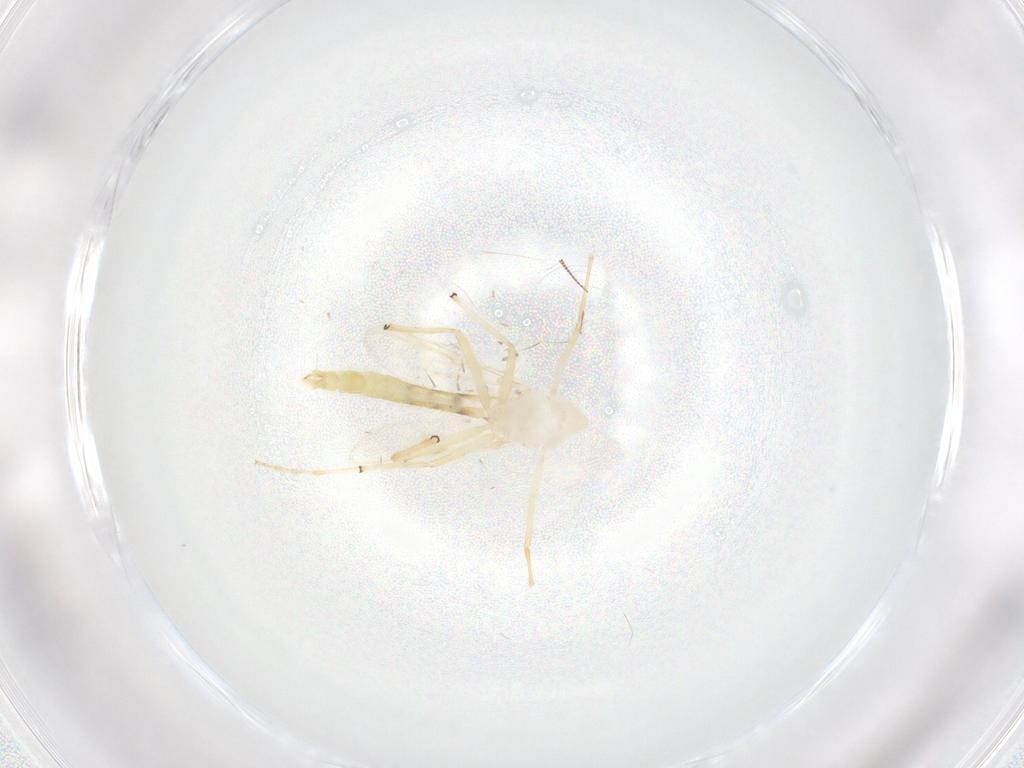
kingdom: Animalia
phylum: Arthropoda
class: Insecta
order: Diptera
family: Chironomidae
